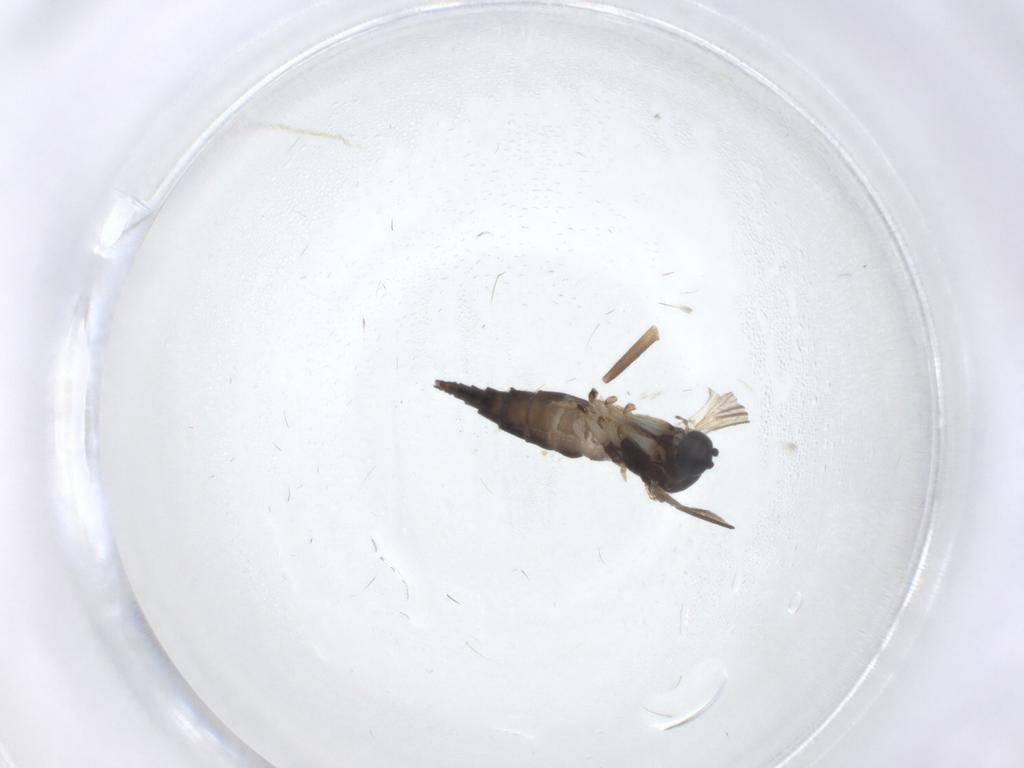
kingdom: Animalia
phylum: Arthropoda
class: Insecta
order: Diptera
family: Sciaridae
